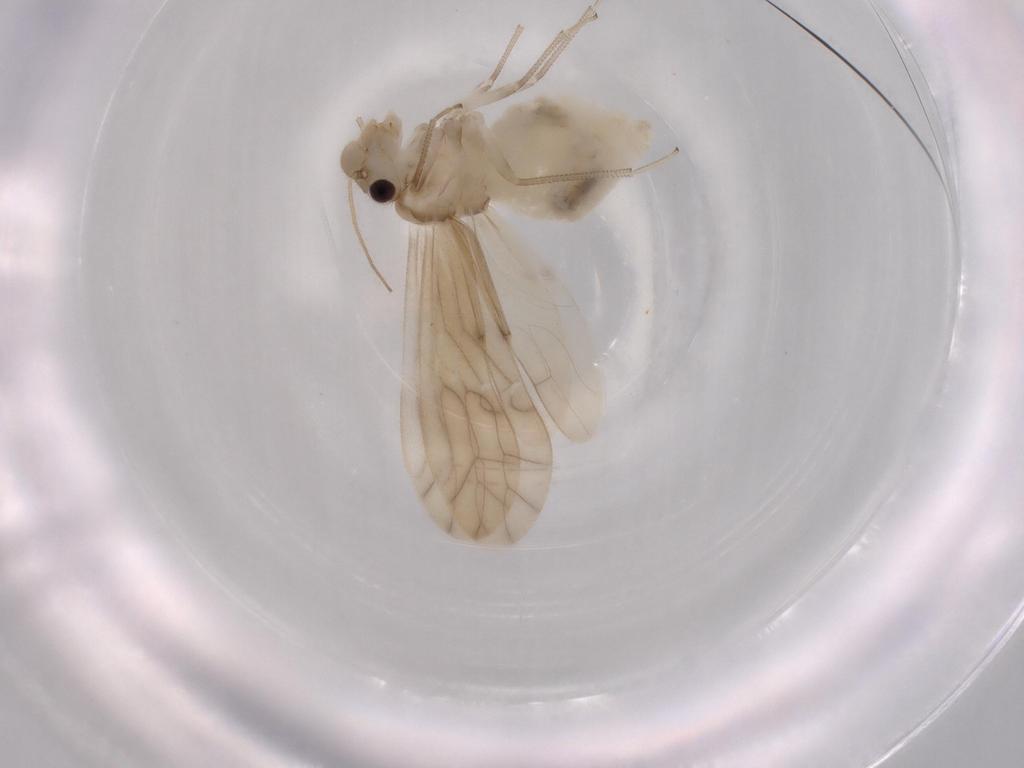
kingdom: Animalia
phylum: Arthropoda
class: Insecta
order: Psocodea
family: Caeciliusidae
